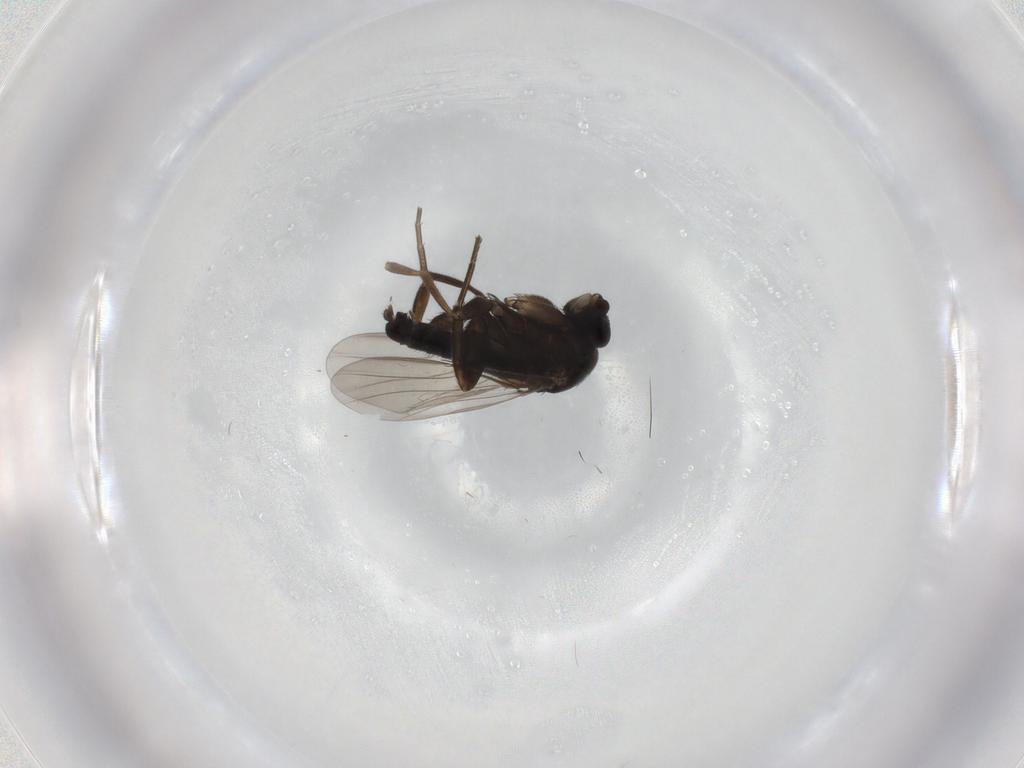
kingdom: Animalia
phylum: Arthropoda
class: Insecta
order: Diptera
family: Phoridae
